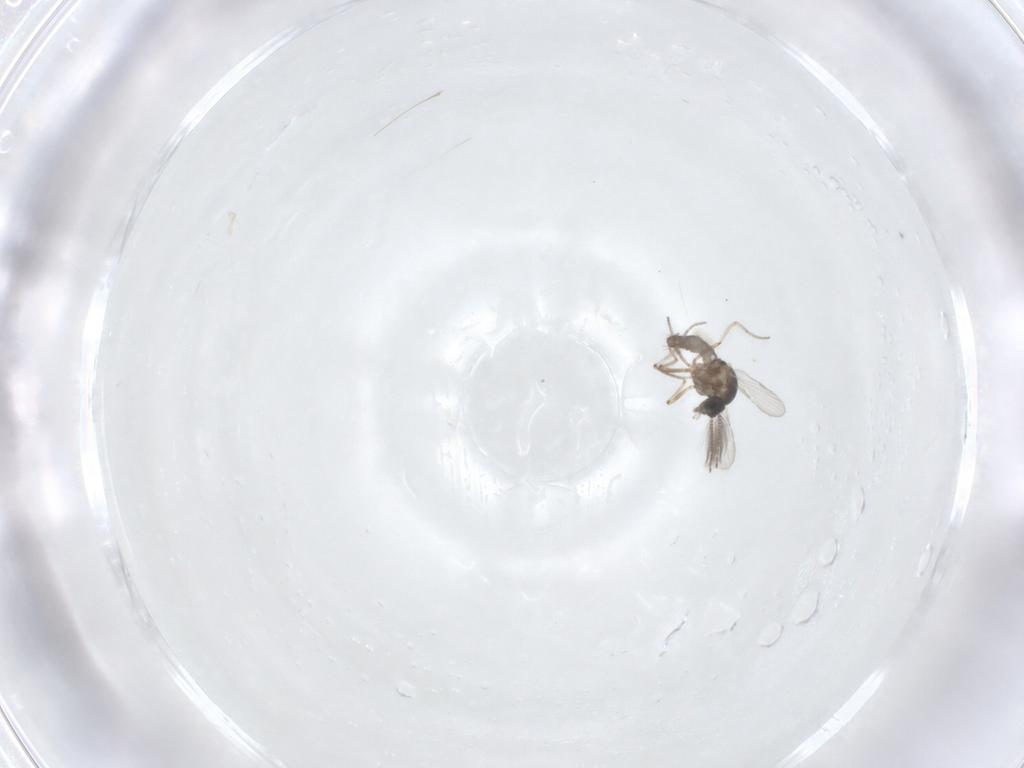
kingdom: Animalia
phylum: Arthropoda
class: Insecta
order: Diptera
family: Ceratopogonidae
